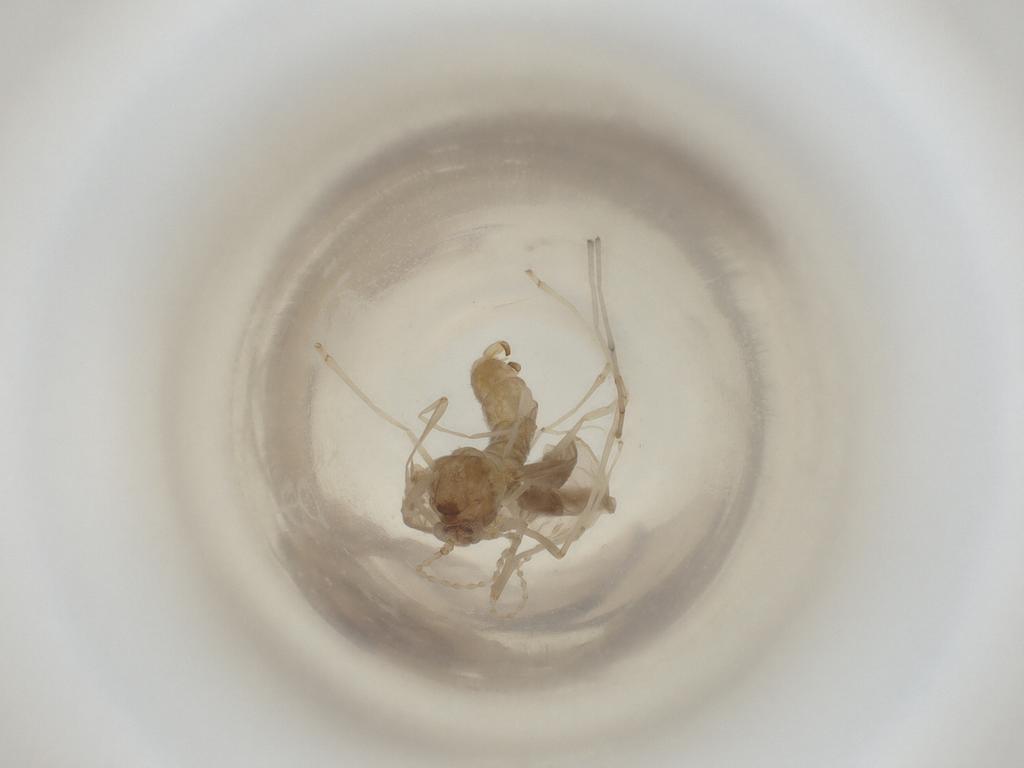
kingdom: Animalia
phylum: Arthropoda
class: Insecta
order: Diptera
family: Cecidomyiidae
